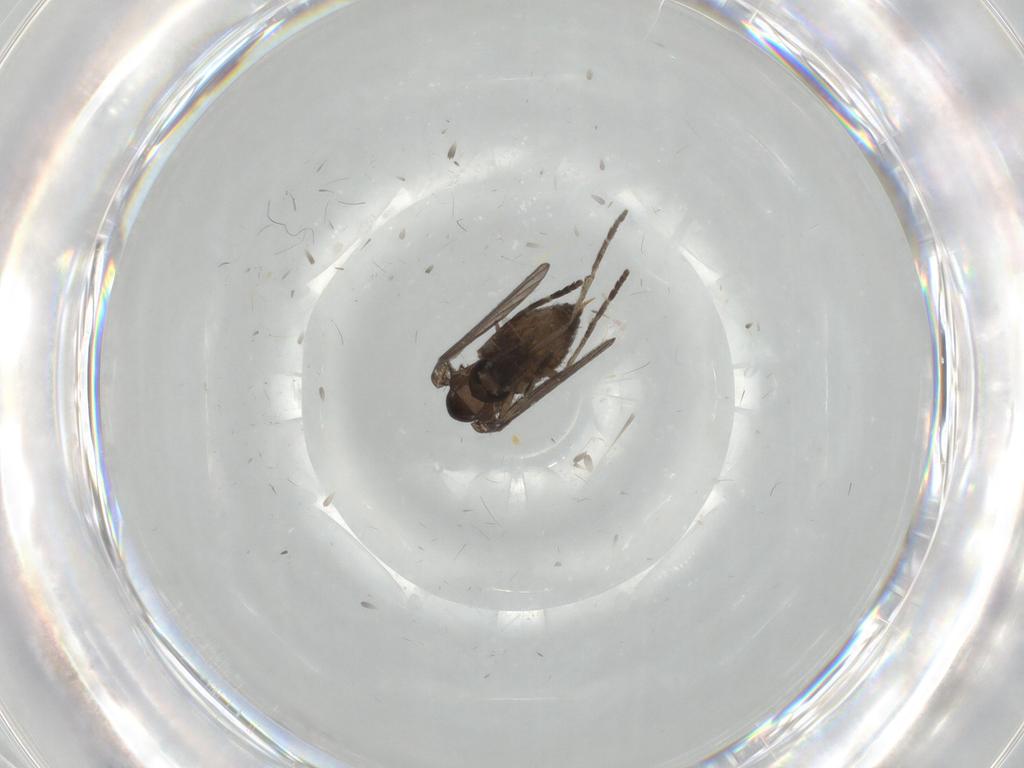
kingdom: Animalia
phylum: Arthropoda
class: Insecta
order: Diptera
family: Psychodidae
